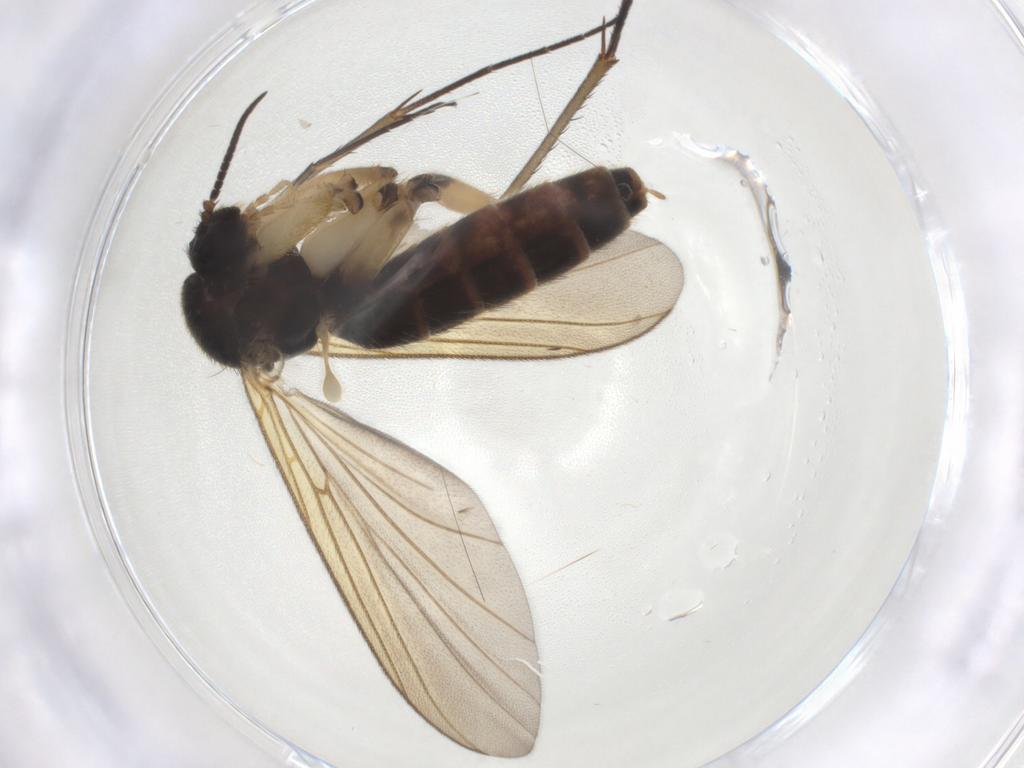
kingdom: Animalia
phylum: Arthropoda
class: Insecta
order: Diptera
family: Mycetophilidae
